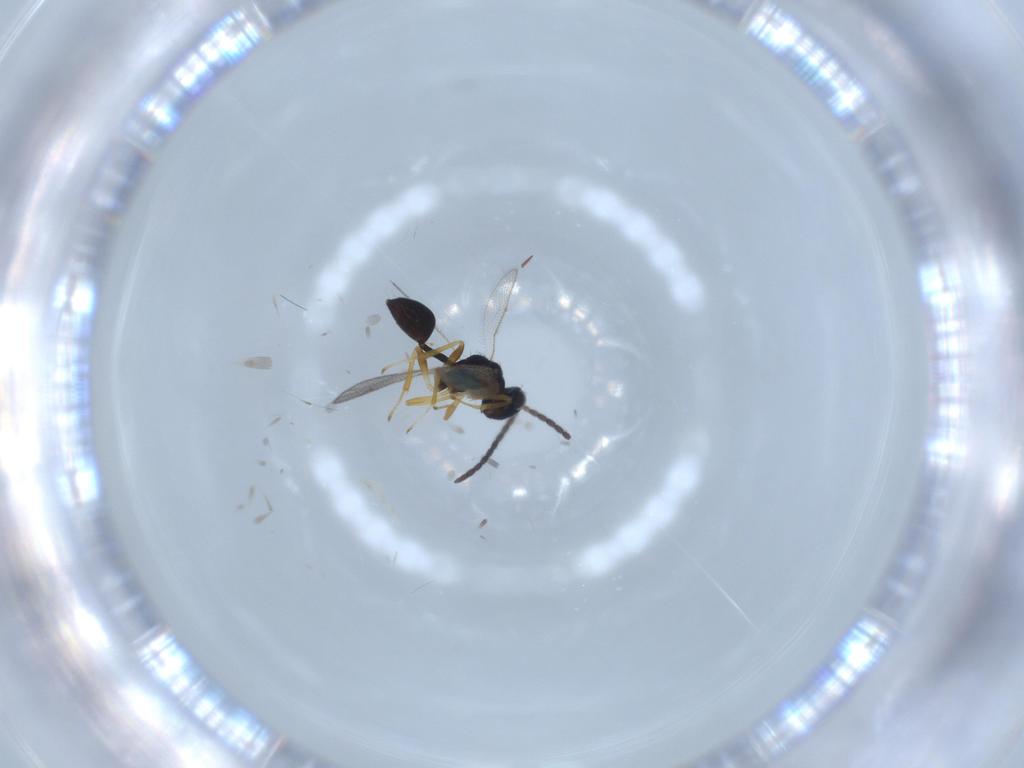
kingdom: Animalia
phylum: Arthropoda
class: Insecta
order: Hymenoptera
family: Diparidae
